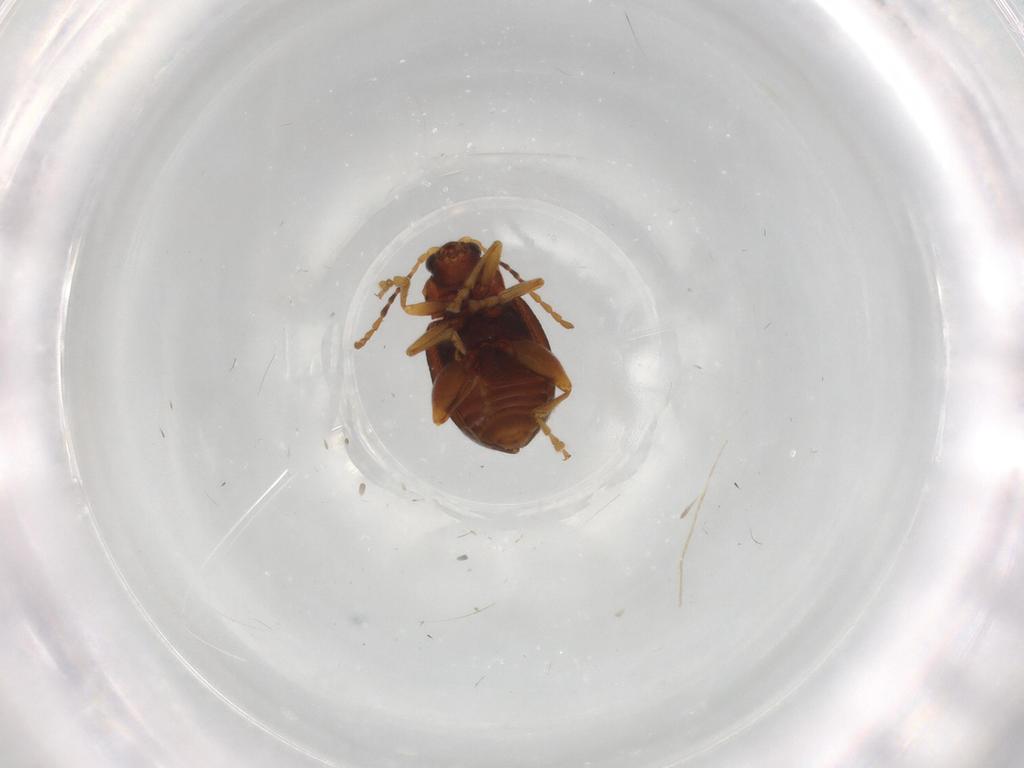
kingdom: Animalia
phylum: Arthropoda
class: Insecta
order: Coleoptera
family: Chrysomelidae
